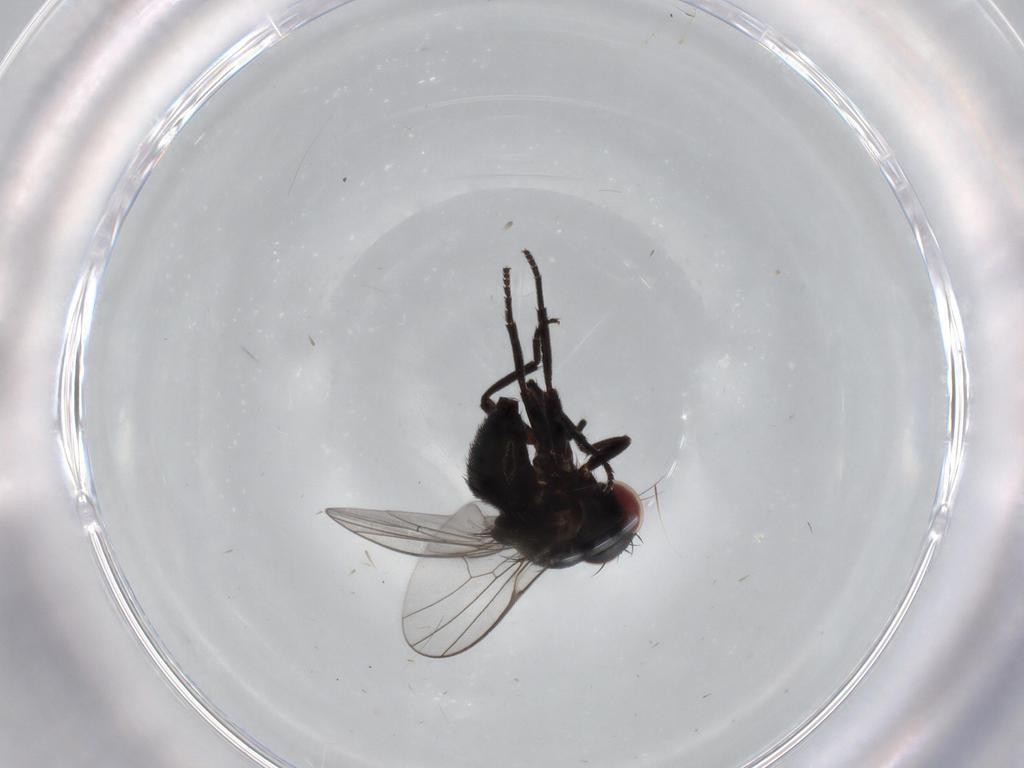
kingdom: Animalia
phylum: Arthropoda
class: Insecta
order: Diptera
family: Agromyzidae
